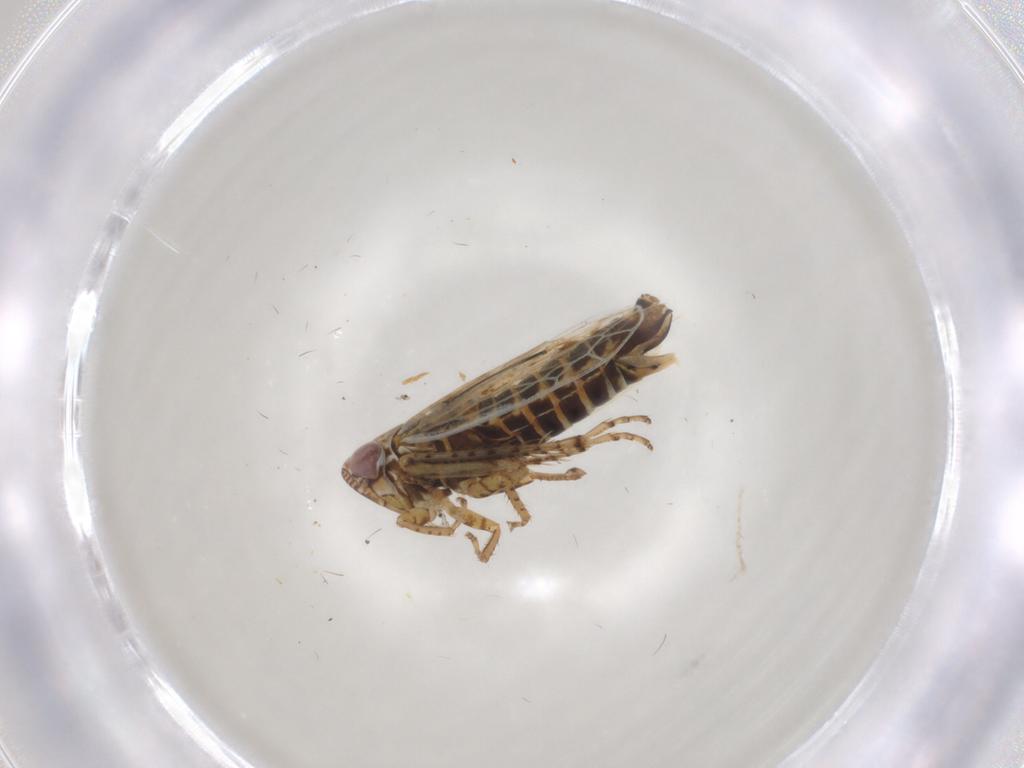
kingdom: Animalia
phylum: Arthropoda
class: Insecta
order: Hemiptera
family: Cicadellidae
